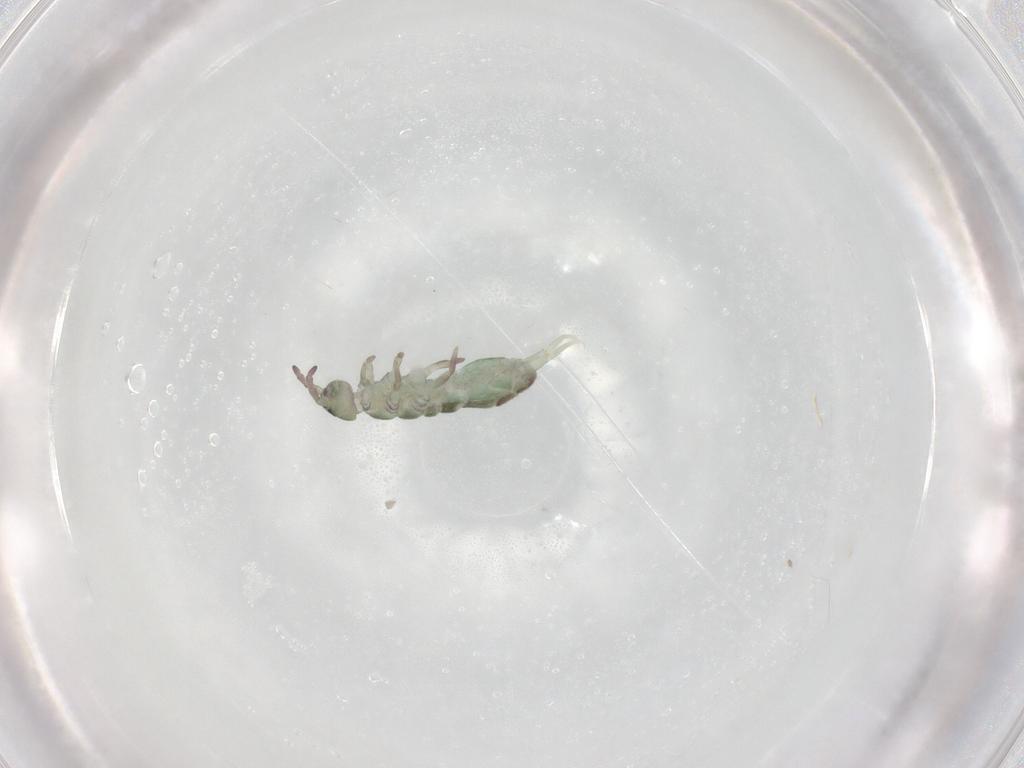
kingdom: Animalia
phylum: Arthropoda
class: Collembola
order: Entomobryomorpha
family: Isotomidae
